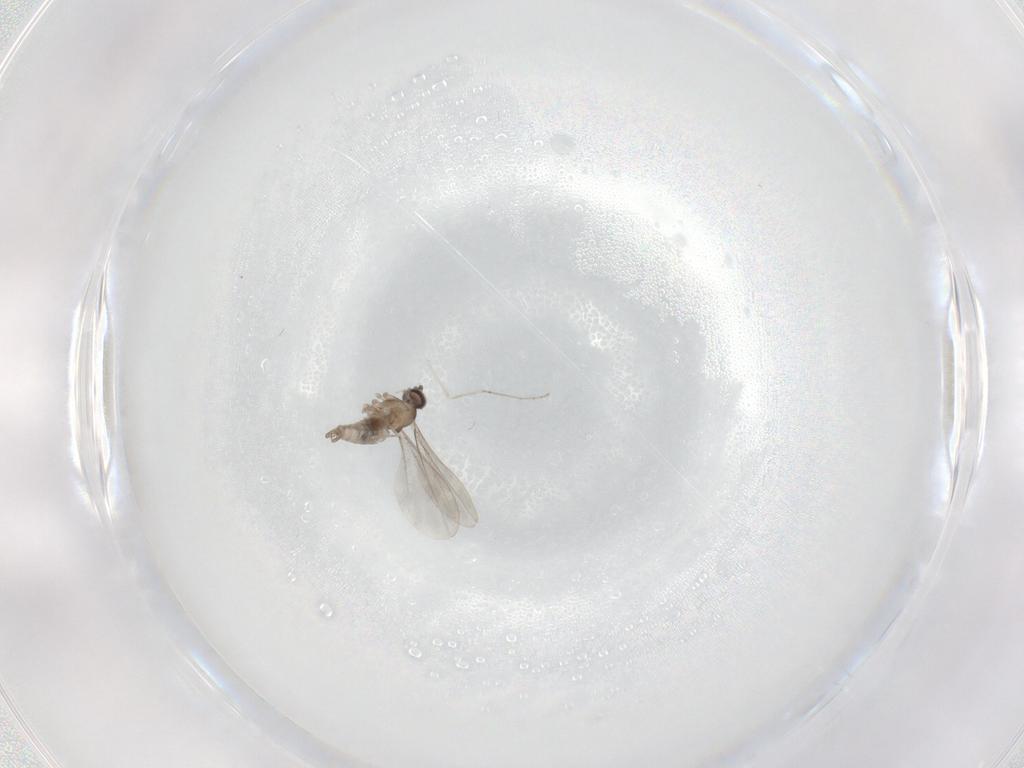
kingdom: Animalia
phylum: Arthropoda
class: Insecta
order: Diptera
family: Cecidomyiidae
